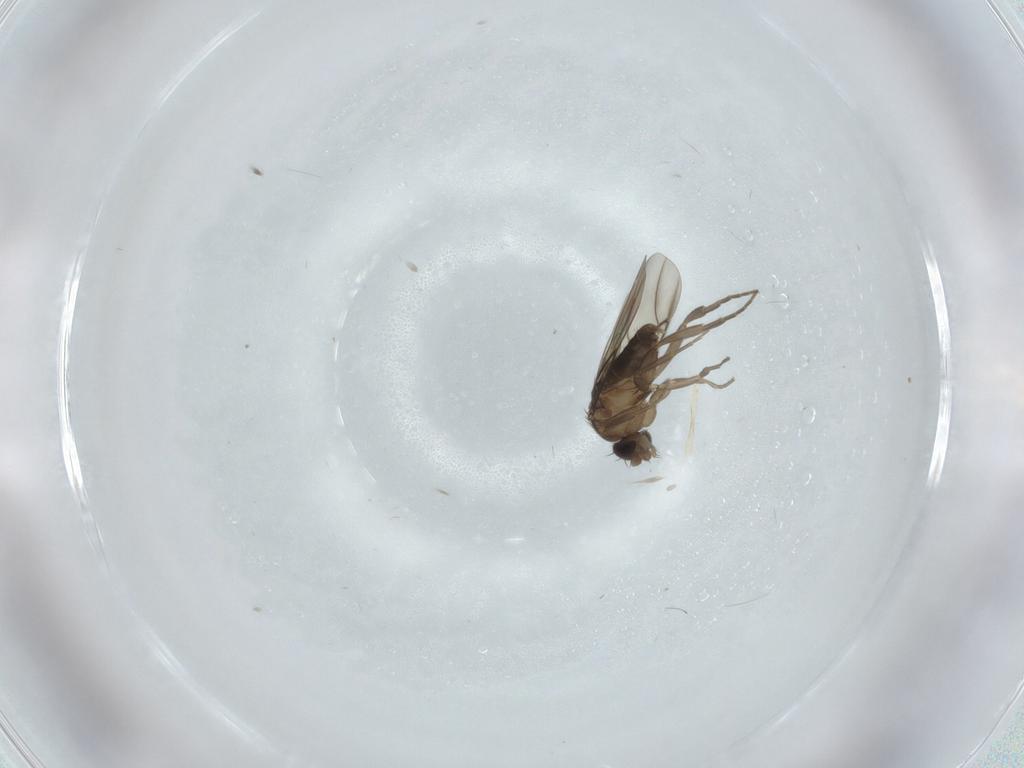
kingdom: Animalia
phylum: Arthropoda
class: Insecta
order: Diptera
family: Phoridae
